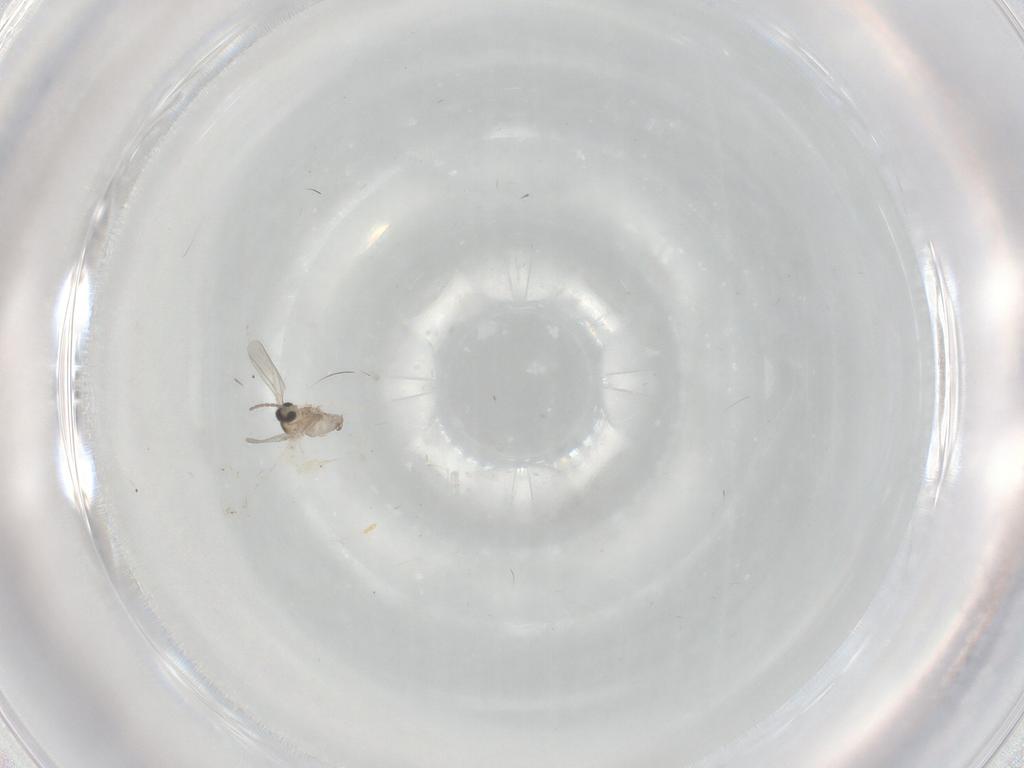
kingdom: Animalia
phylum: Arthropoda
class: Insecta
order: Diptera
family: Chironomidae
